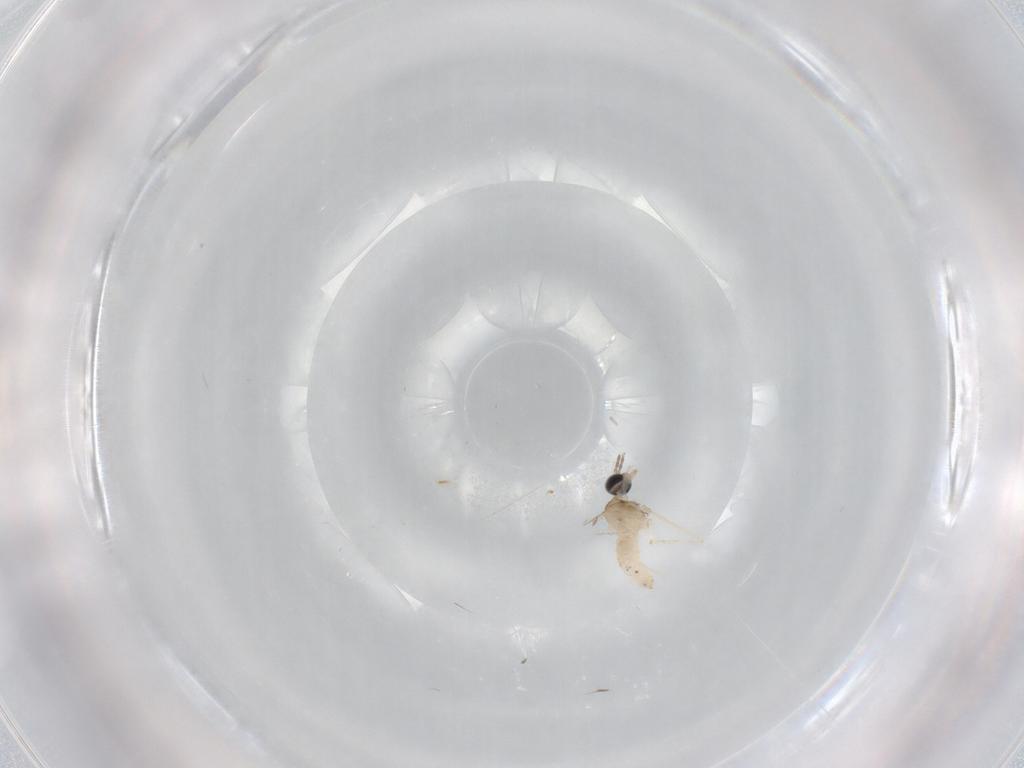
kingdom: Animalia
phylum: Arthropoda
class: Insecta
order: Diptera
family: Cecidomyiidae
